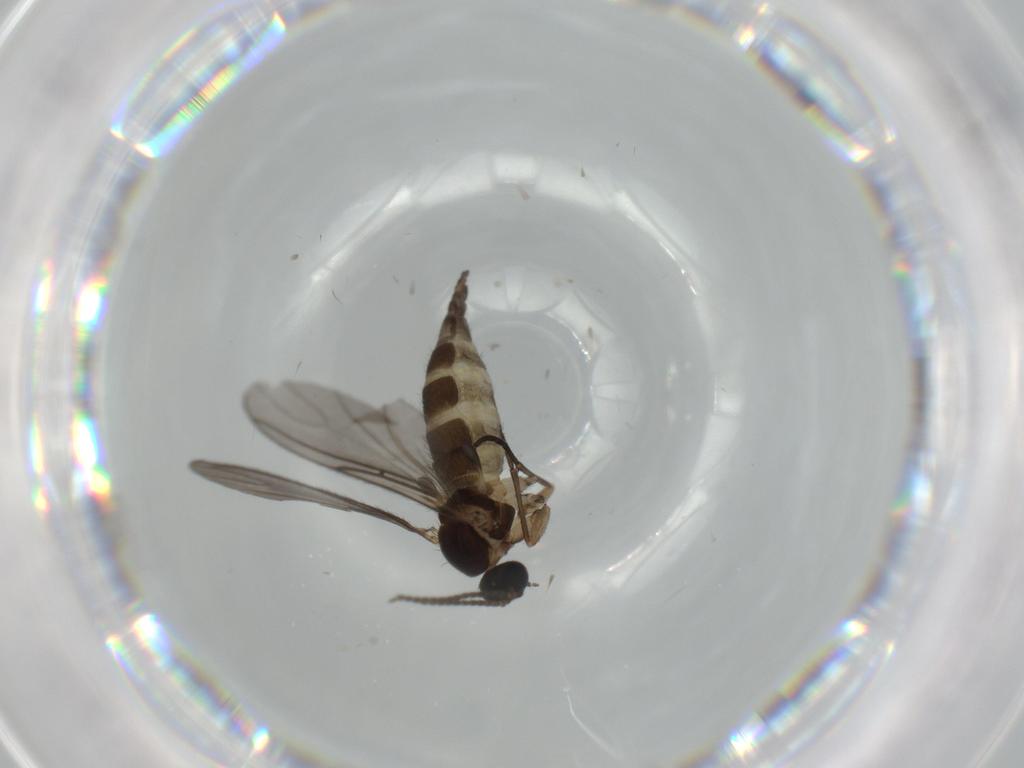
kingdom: Animalia
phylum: Arthropoda
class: Insecta
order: Diptera
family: Sciaridae
